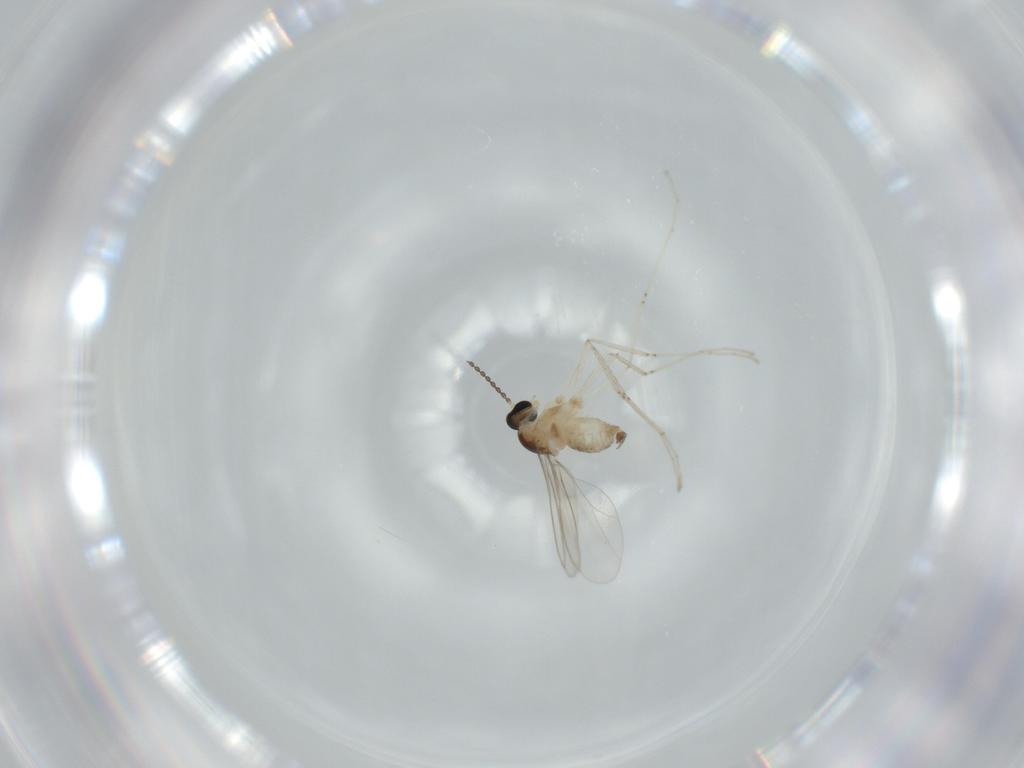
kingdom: Animalia
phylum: Arthropoda
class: Insecta
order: Diptera
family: Cecidomyiidae
